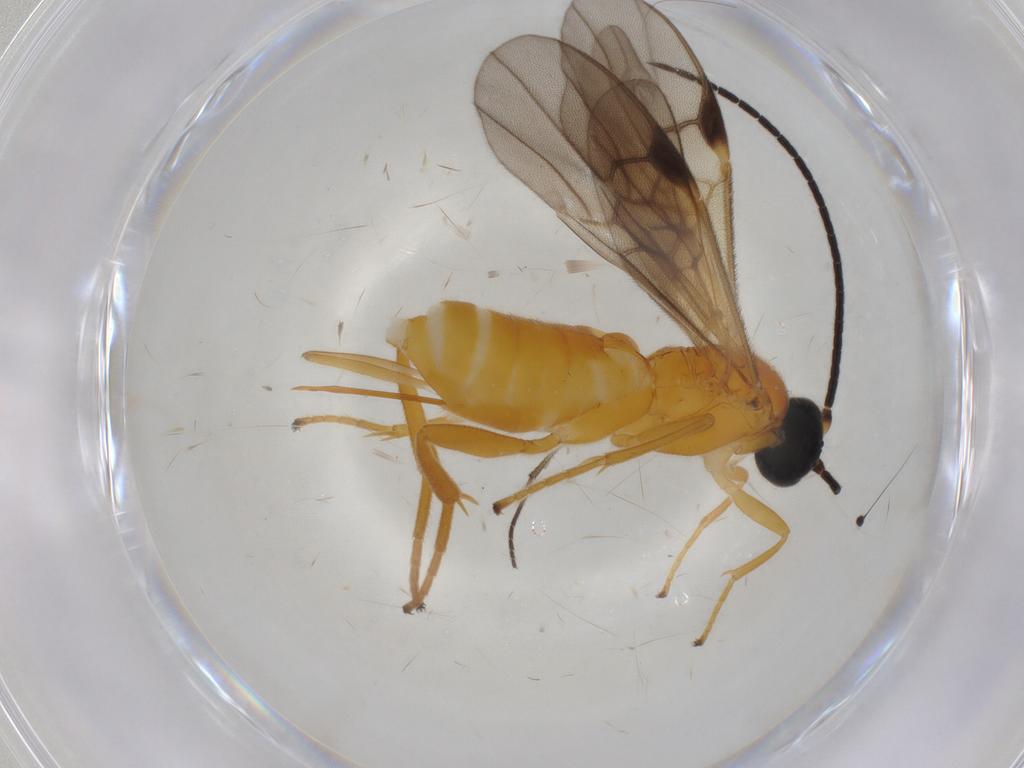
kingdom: Animalia
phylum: Arthropoda
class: Insecta
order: Hymenoptera
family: Braconidae
